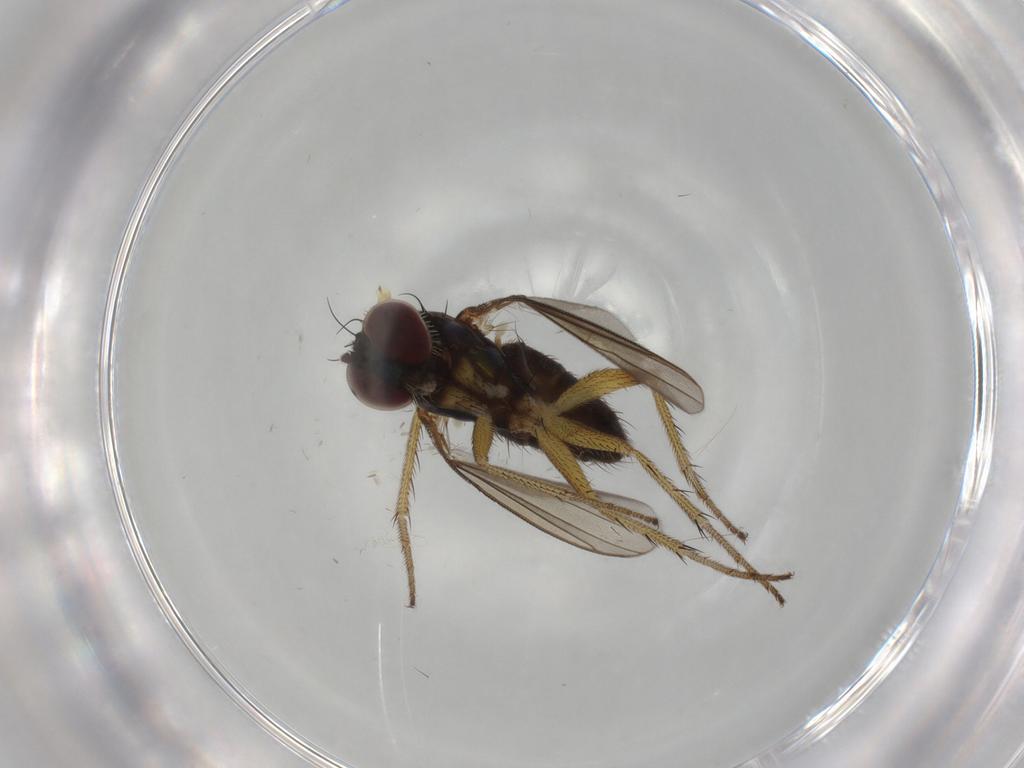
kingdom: Animalia
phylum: Arthropoda
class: Insecta
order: Diptera
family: Dolichopodidae
